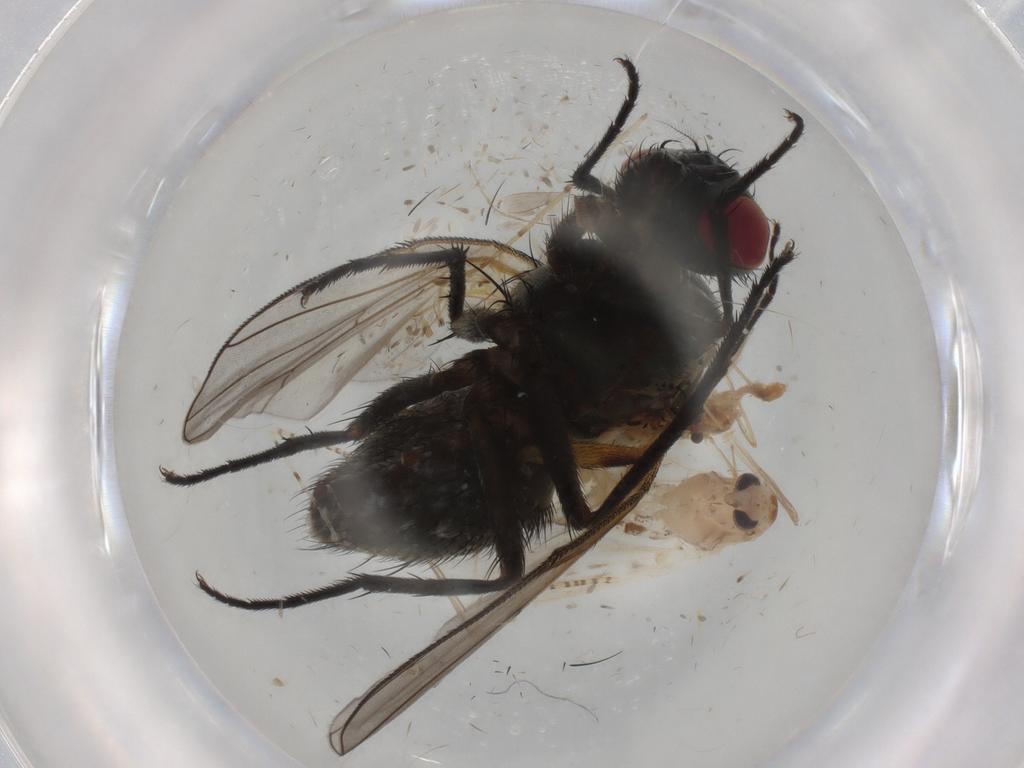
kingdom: Animalia
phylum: Arthropoda
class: Insecta
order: Diptera
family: Chaoboridae
